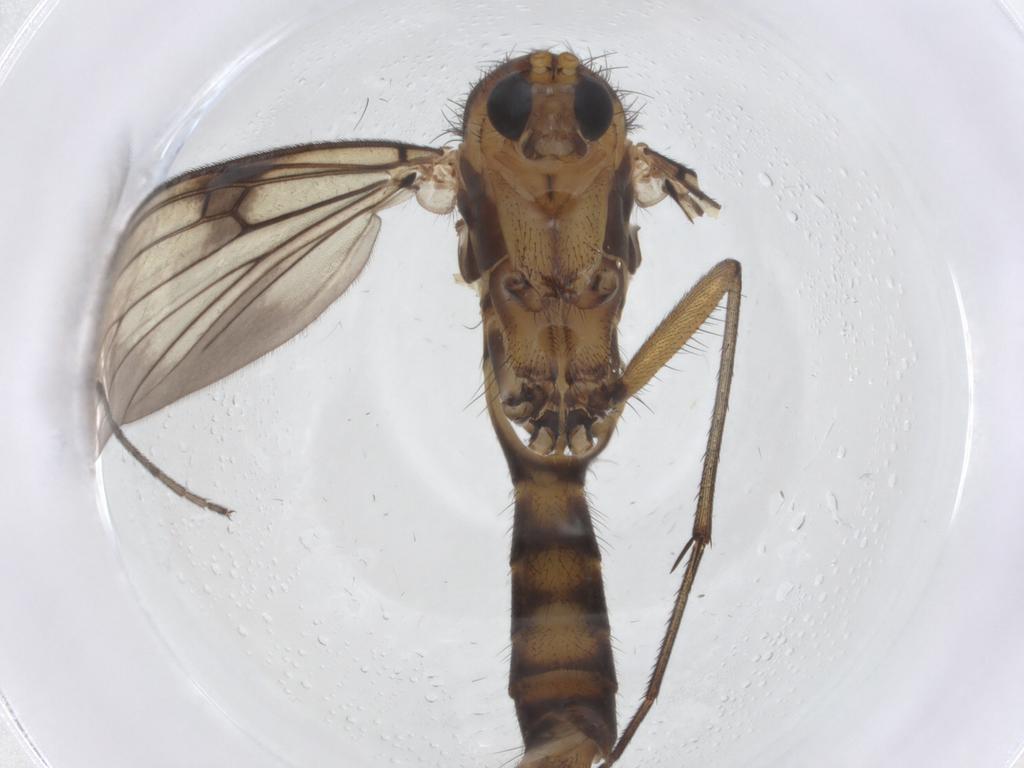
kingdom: Animalia
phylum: Arthropoda
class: Insecta
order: Diptera
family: Mycetophilidae
